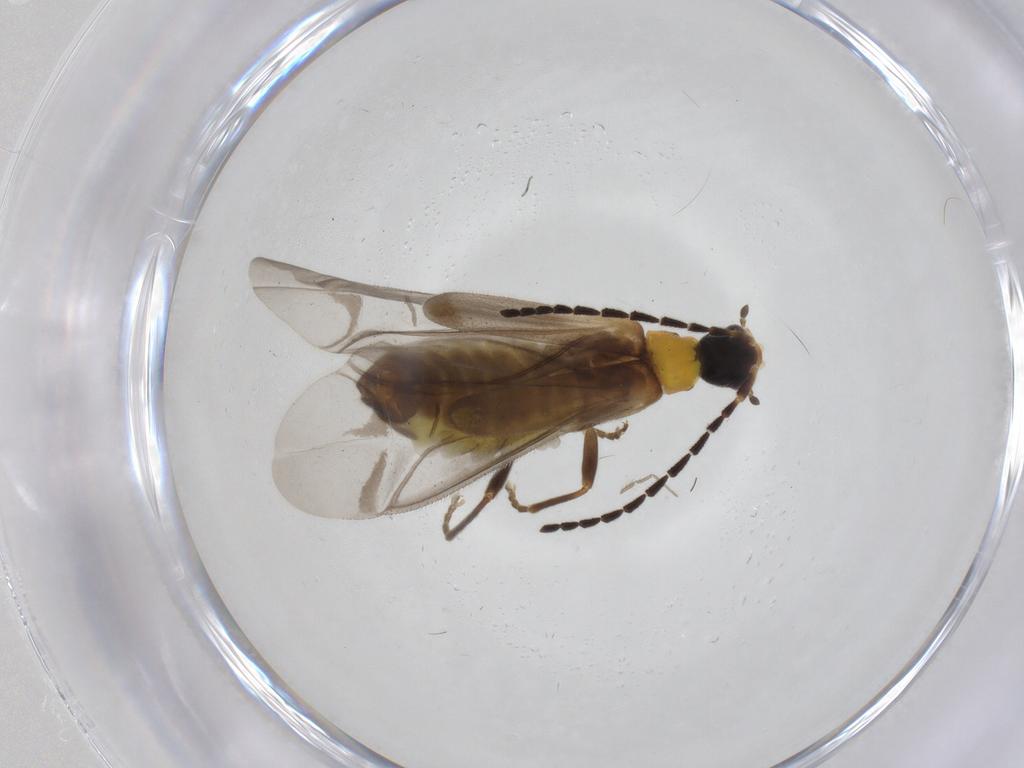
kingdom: Animalia
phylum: Arthropoda
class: Insecta
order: Coleoptera
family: Cantharidae
